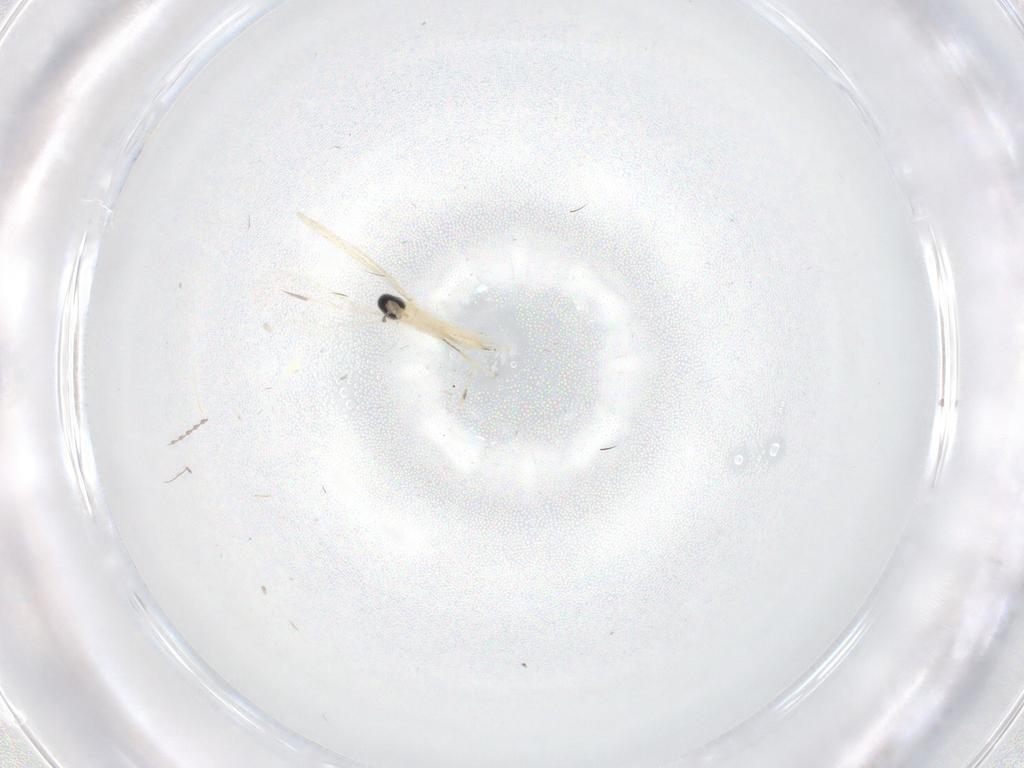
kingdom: Animalia
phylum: Arthropoda
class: Insecta
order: Diptera
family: Cecidomyiidae
